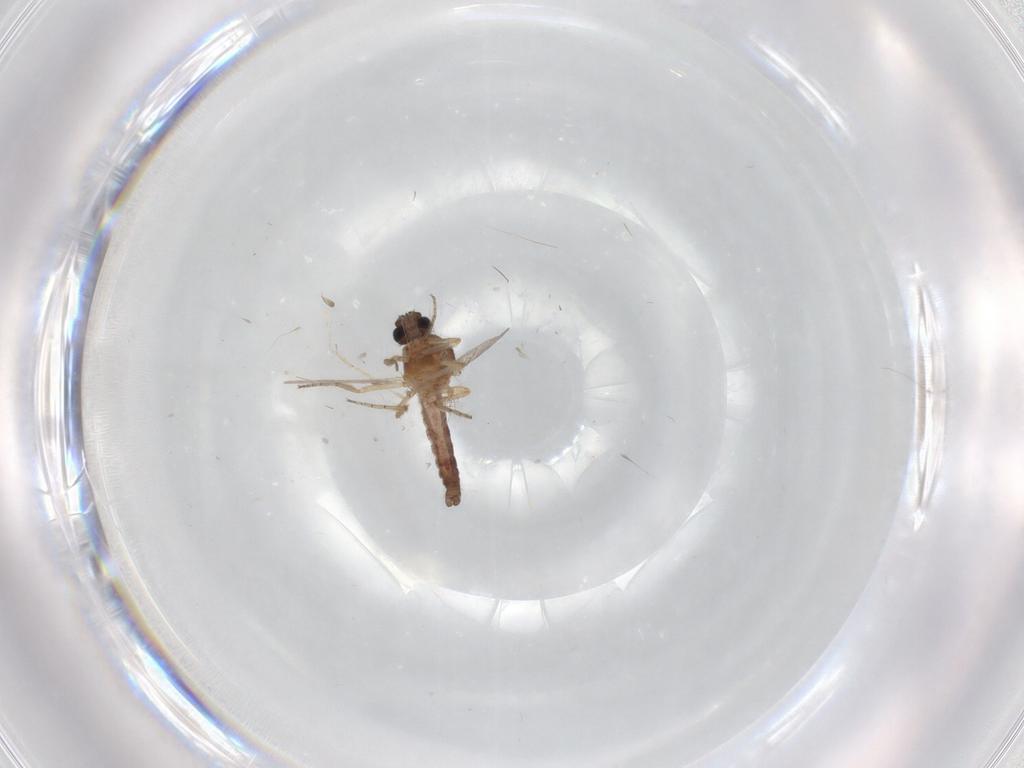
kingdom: Animalia
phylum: Arthropoda
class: Insecta
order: Diptera
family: Ceratopogonidae
